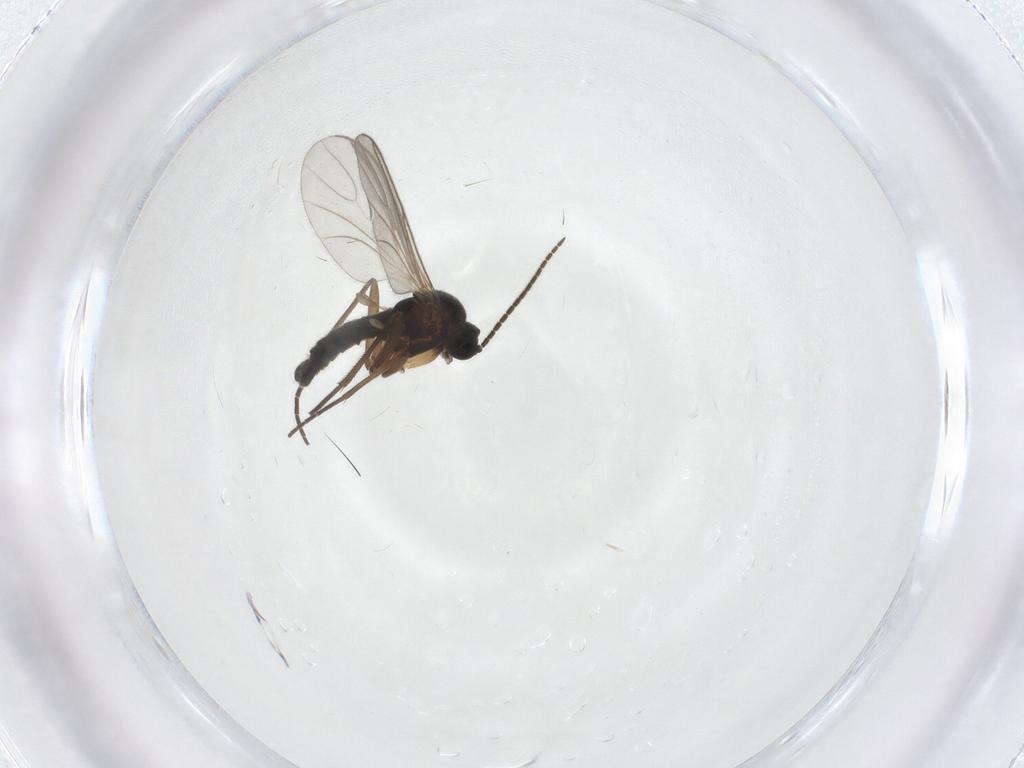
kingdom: Animalia
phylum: Arthropoda
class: Insecta
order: Diptera
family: Sciaridae
